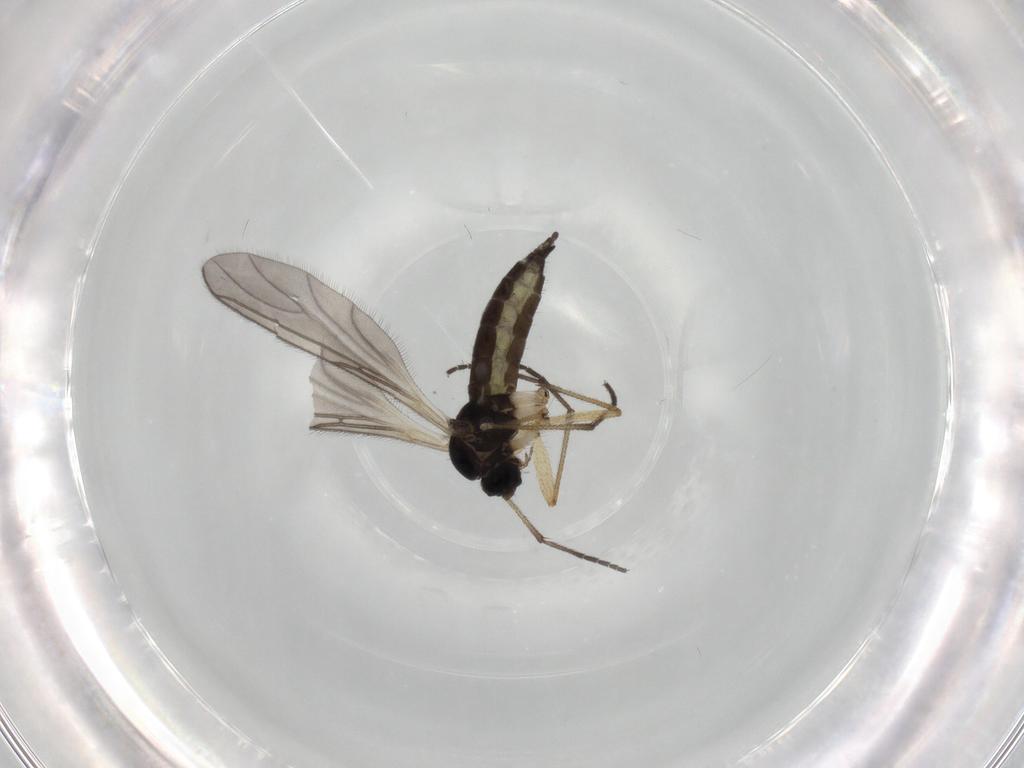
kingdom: Animalia
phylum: Arthropoda
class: Insecta
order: Diptera
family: Sciaridae
